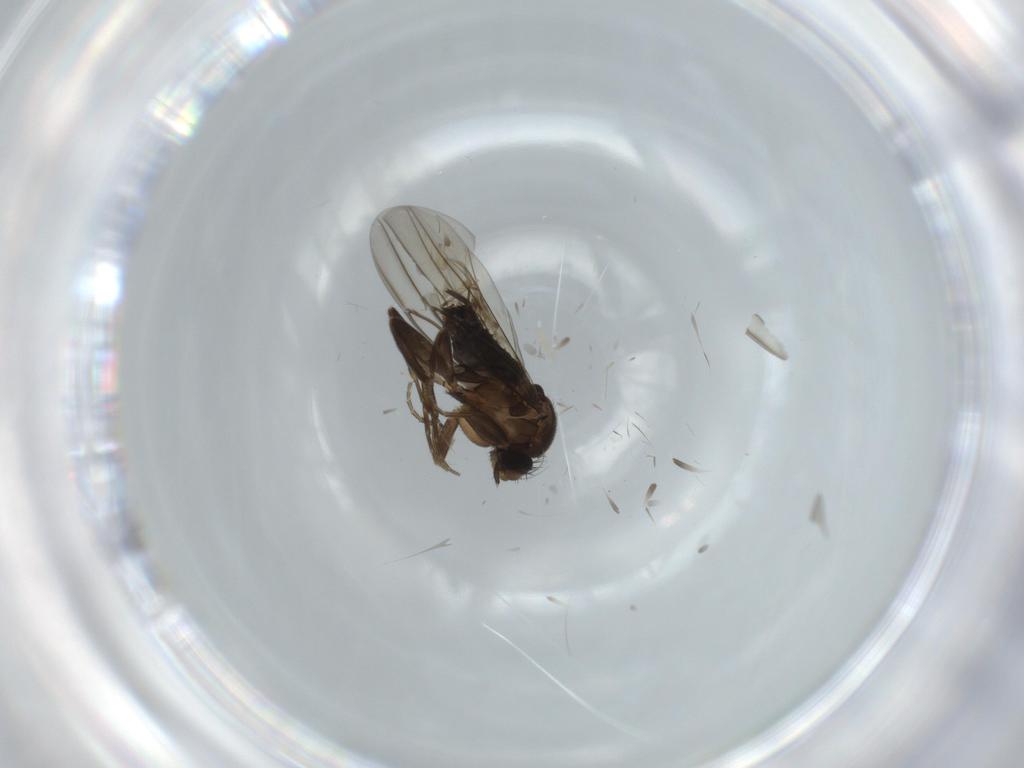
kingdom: Animalia
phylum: Arthropoda
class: Insecta
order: Diptera
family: Cecidomyiidae
